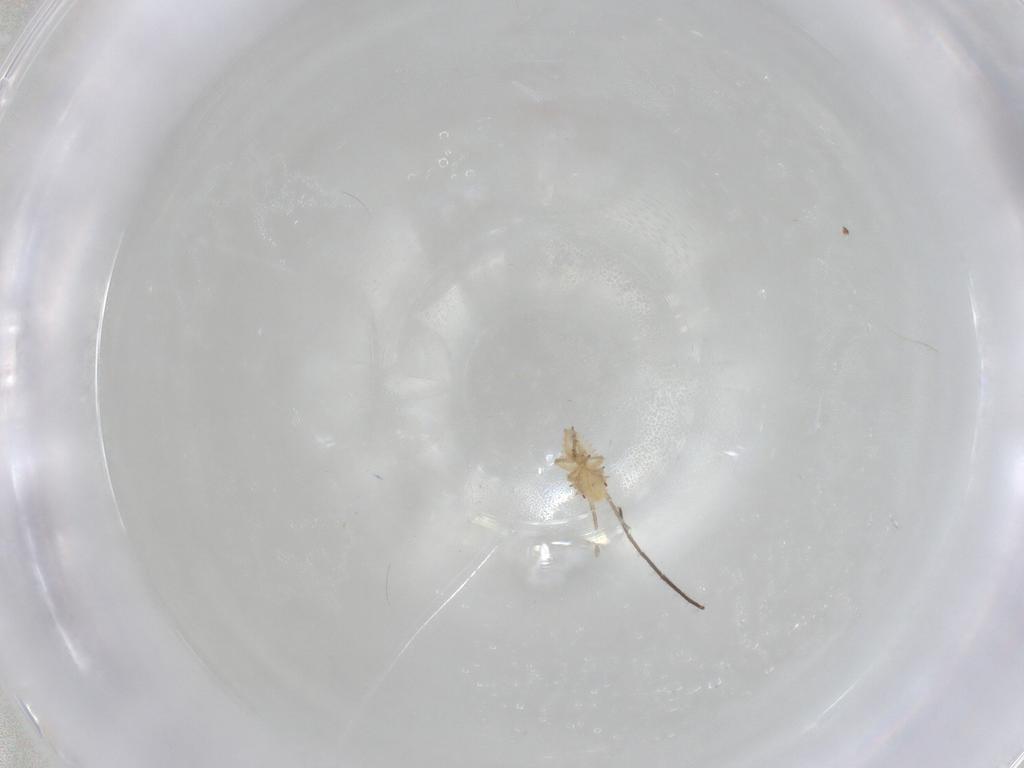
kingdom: Animalia
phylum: Arthropoda
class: Insecta
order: Hemiptera
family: Tingidae
